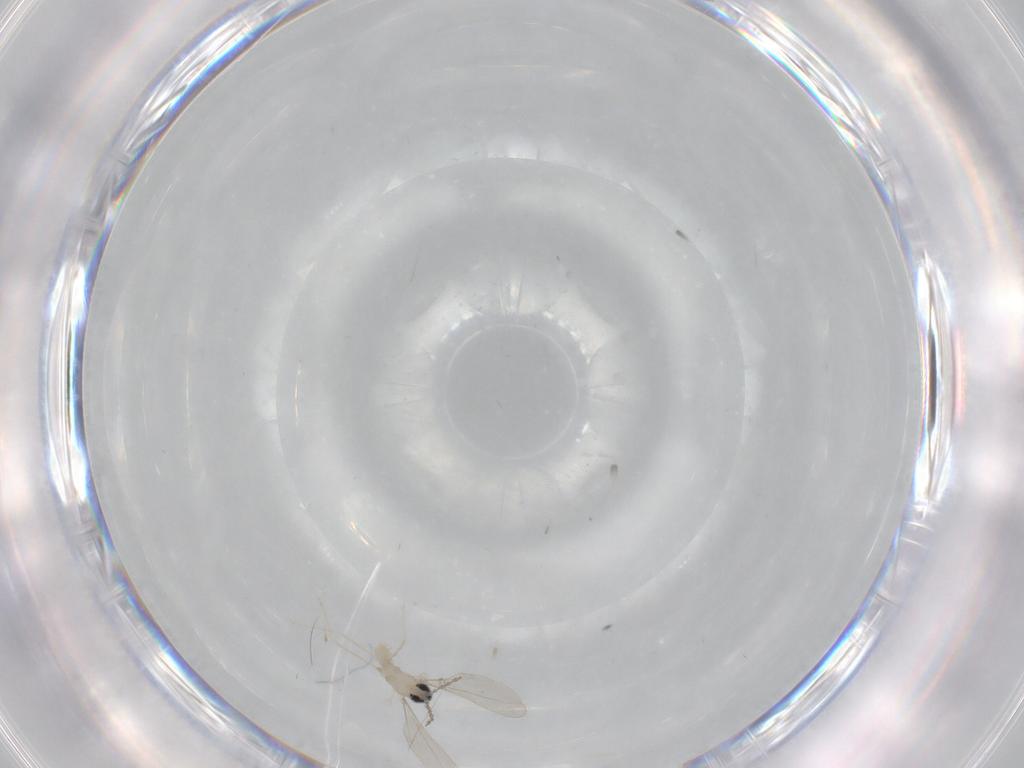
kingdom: Animalia
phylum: Arthropoda
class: Insecta
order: Diptera
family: Cecidomyiidae
